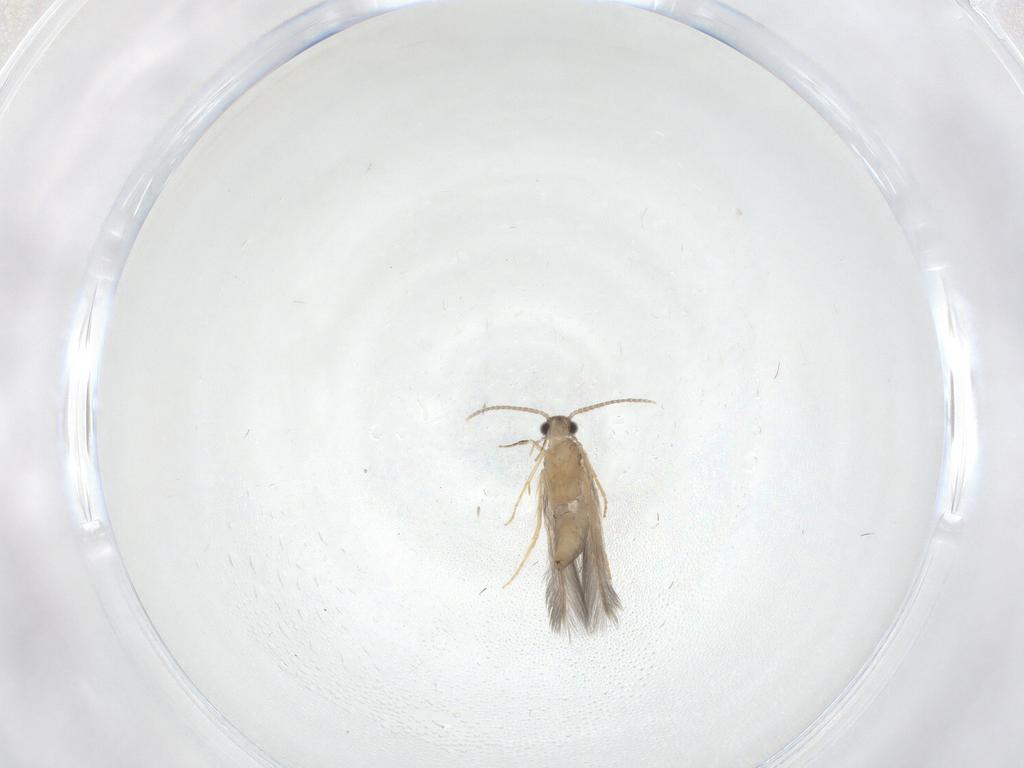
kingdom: Animalia
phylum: Arthropoda
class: Insecta
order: Trichoptera
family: Hydroptilidae
